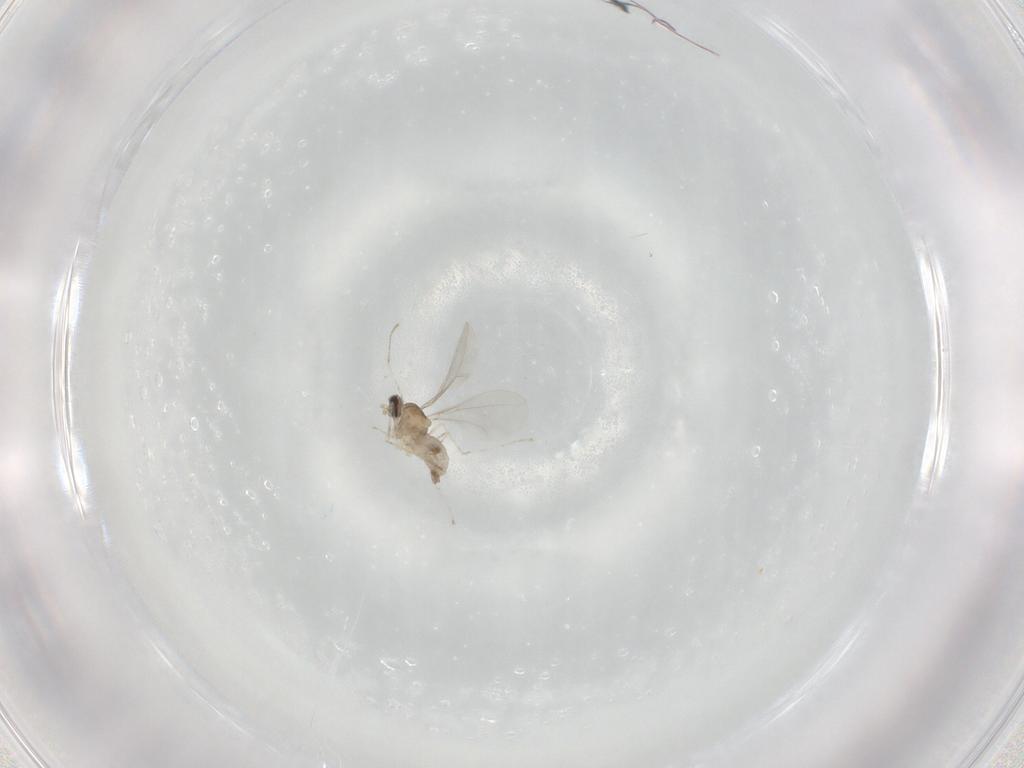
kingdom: Animalia
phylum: Arthropoda
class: Insecta
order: Diptera
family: Cecidomyiidae
